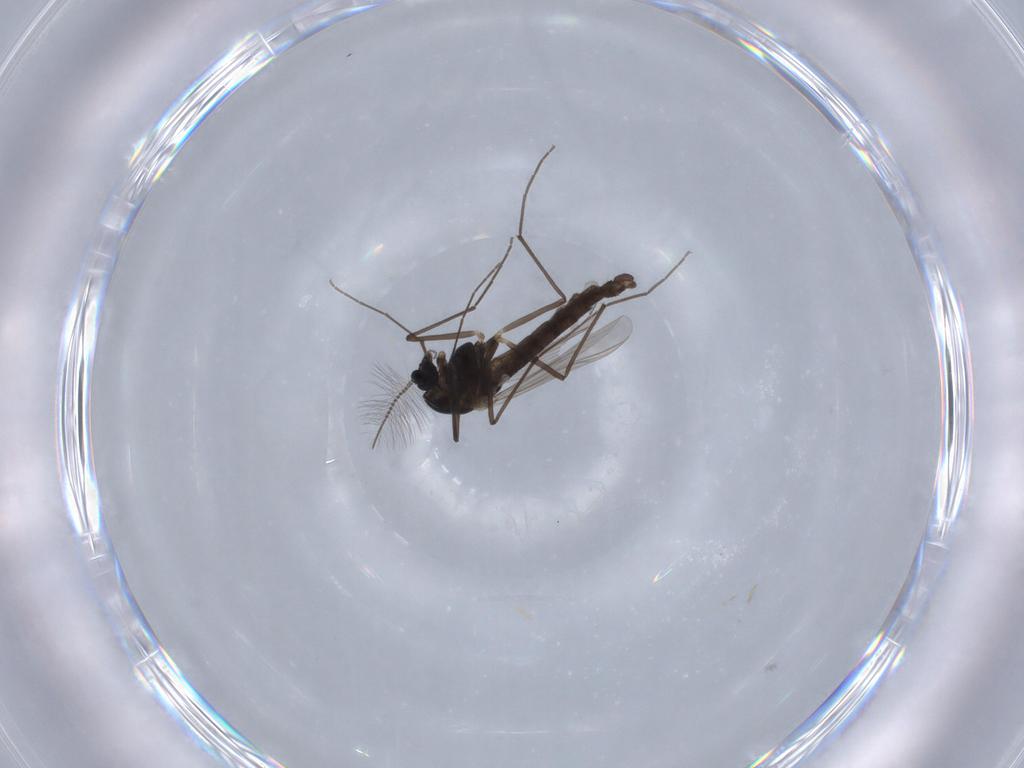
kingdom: Animalia
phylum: Arthropoda
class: Insecta
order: Diptera
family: Chironomidae
